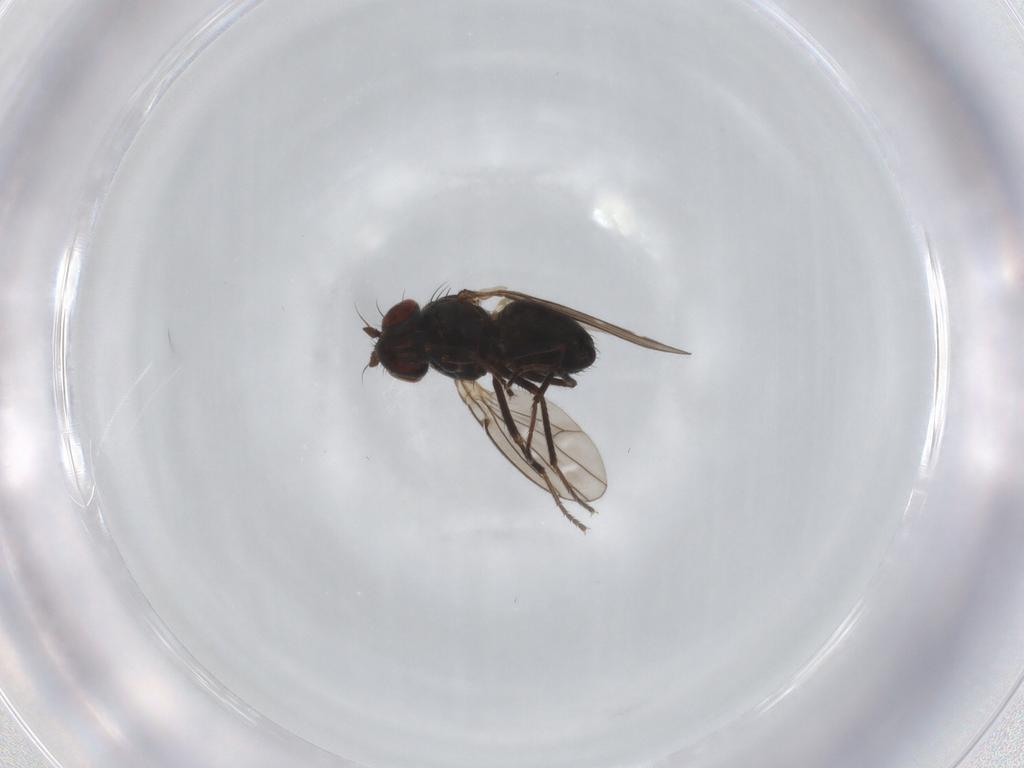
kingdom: Animalia
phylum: Arthropoda
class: Insecta
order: Diptera
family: Ephydridae
